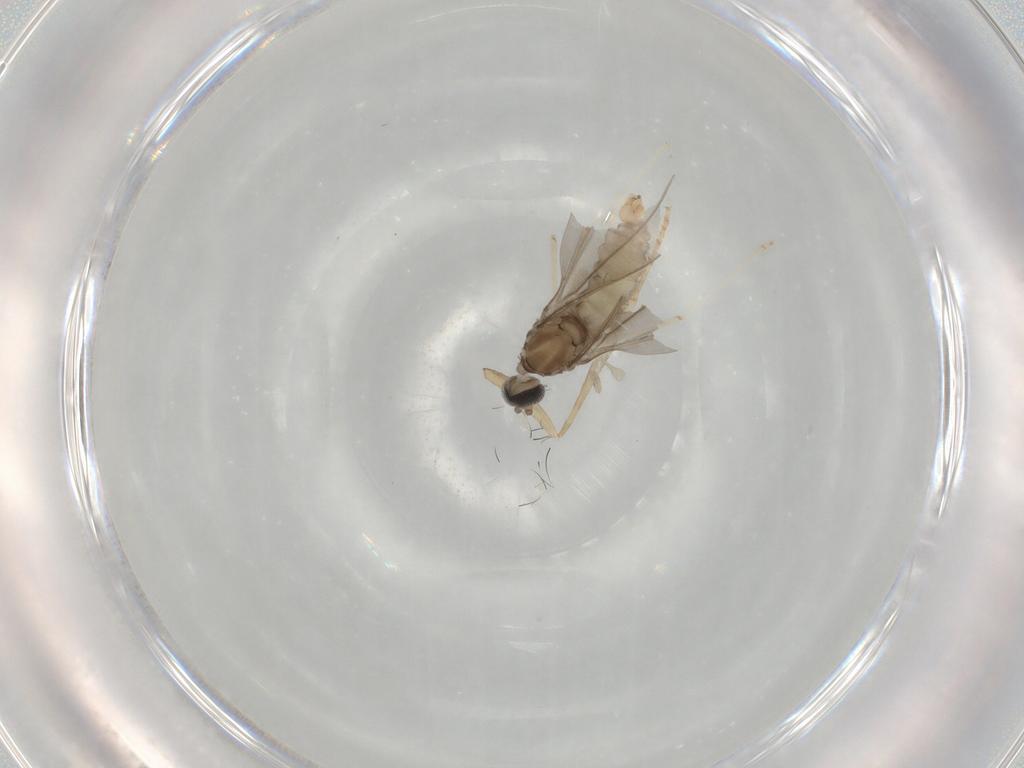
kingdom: Animalia
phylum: Arthropoda
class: Insecta
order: Diptera
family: Cecidomyiidae
